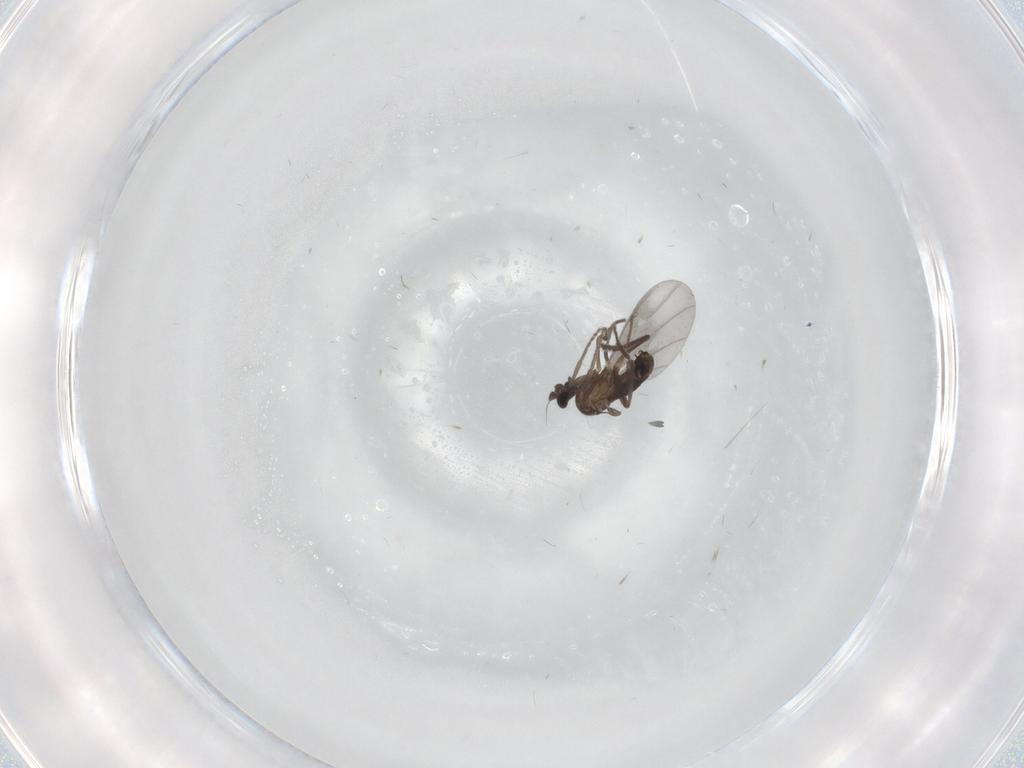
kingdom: Animalia
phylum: Arthropoda
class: Insecta
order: Diptera
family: Phoridae
